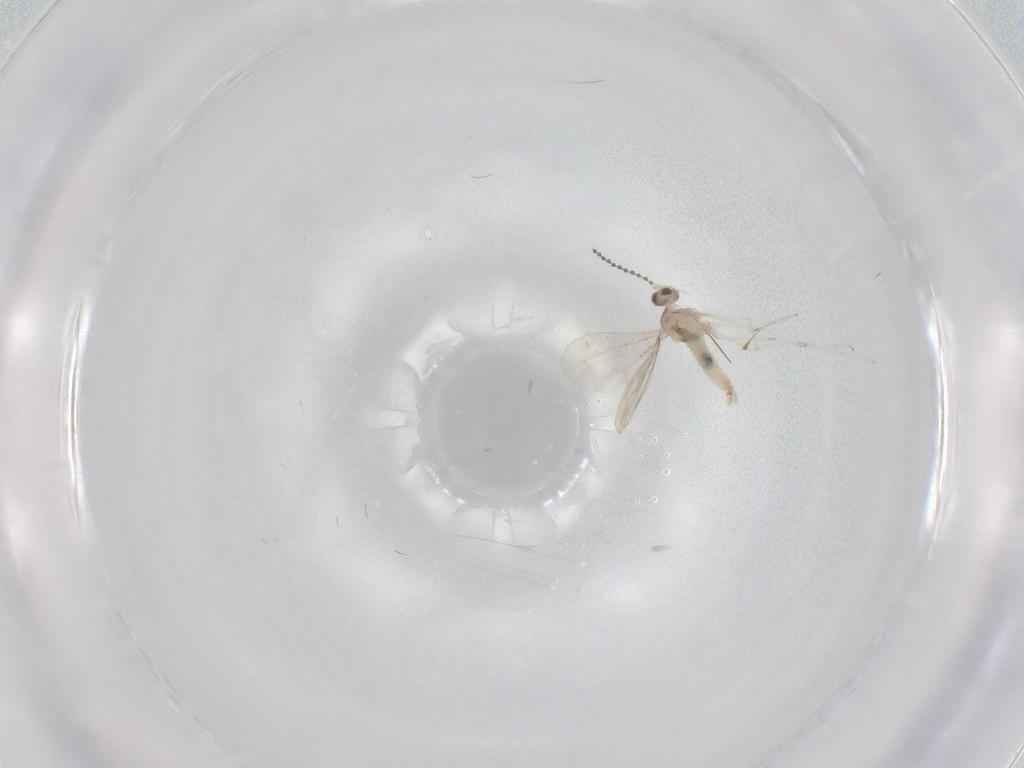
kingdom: Animalia
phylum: Arthropoda
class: Insecta
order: Diptera
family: Cecidomyiidae
